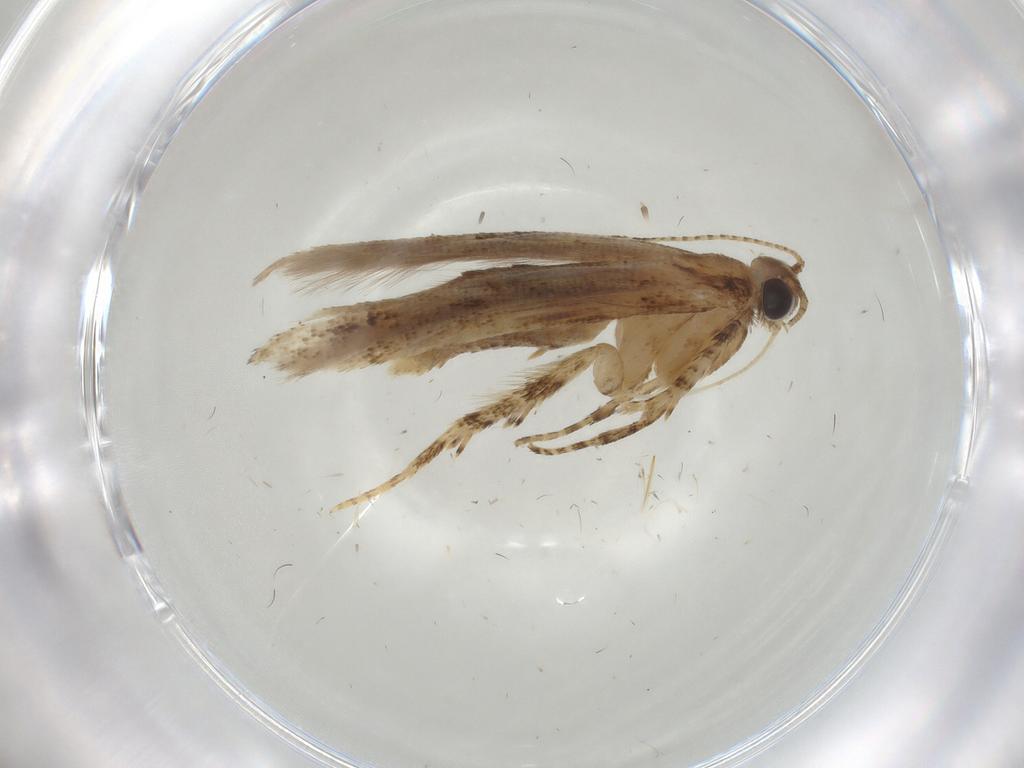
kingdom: Animalia
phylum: Arthropoda
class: Insecta
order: Lepidoptera
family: Gelechiidae
